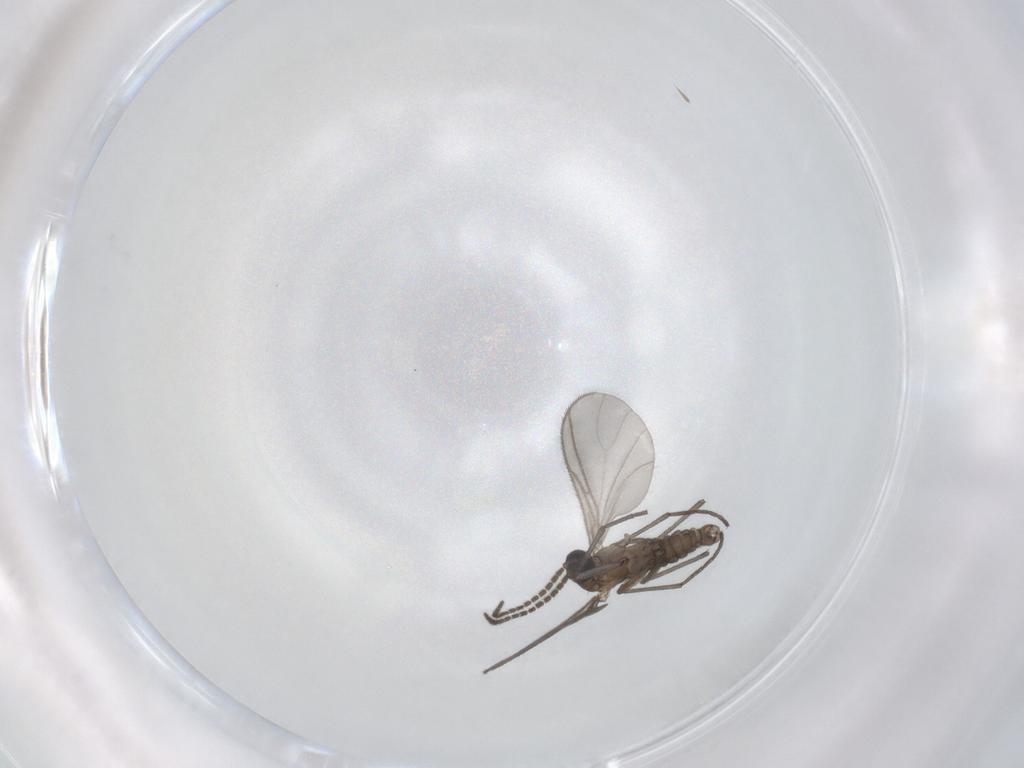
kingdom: Animalia
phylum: Arthropoda
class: Insecta
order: Diptera
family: Sciaridae
